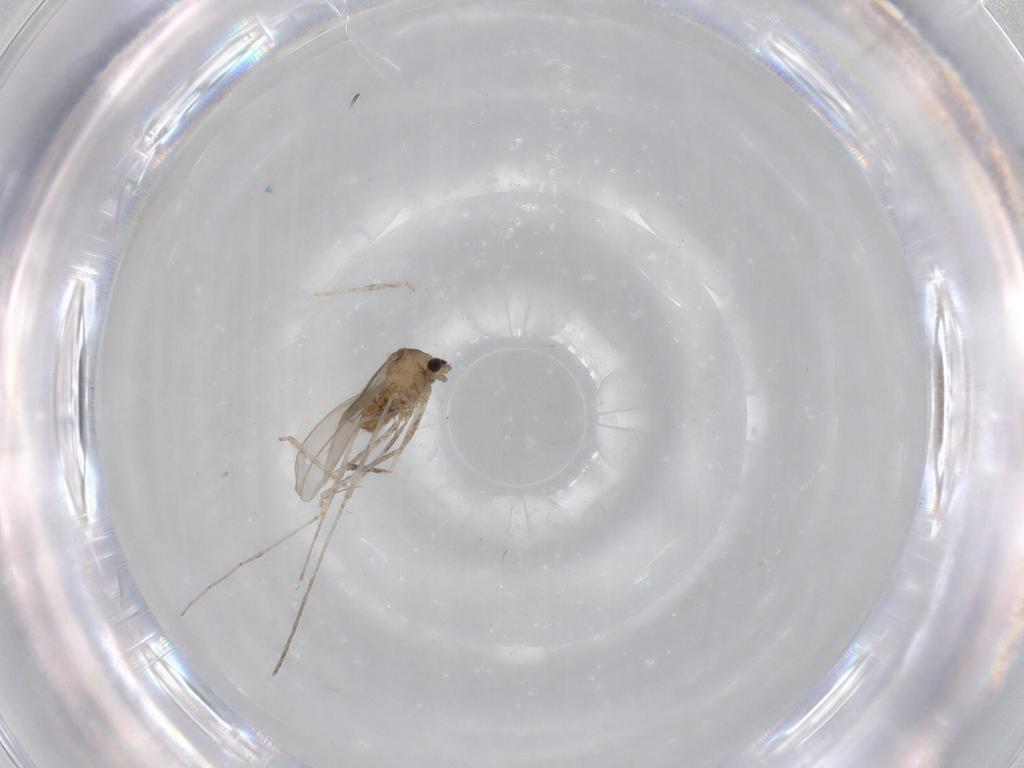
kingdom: Animalia
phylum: Arthropoda
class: Insecta
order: Diptera
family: Cecidomyiidae
